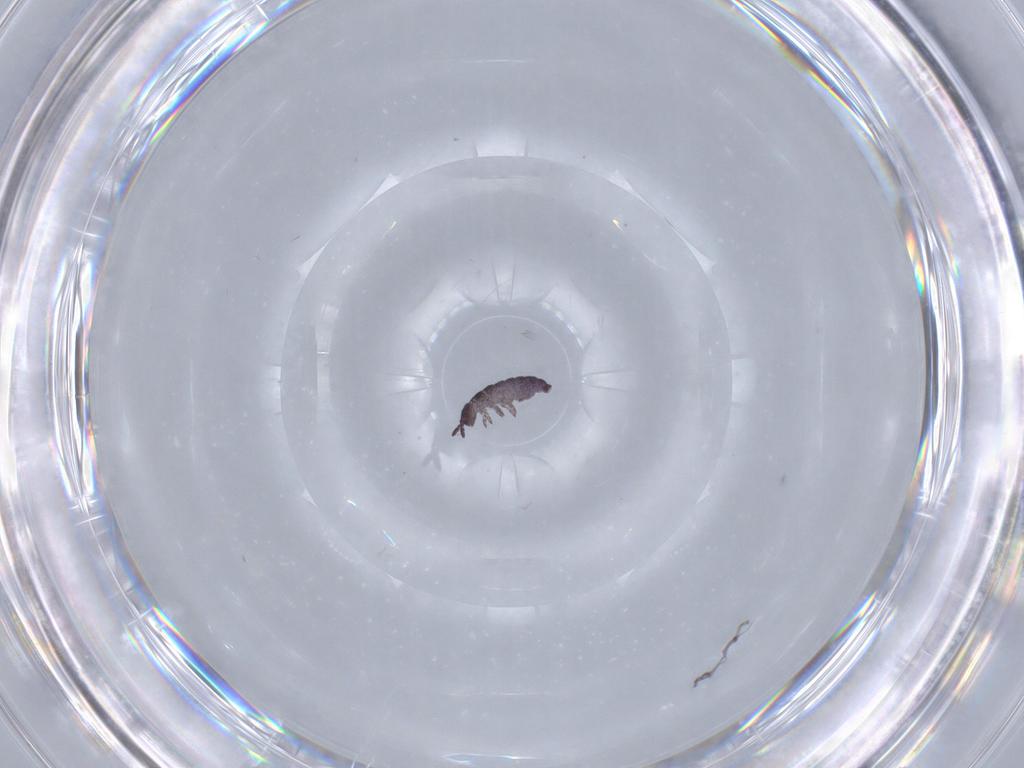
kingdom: Animalia
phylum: Arthropoda
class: Collembola
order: Poduromorpha
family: Hypogastruridae
